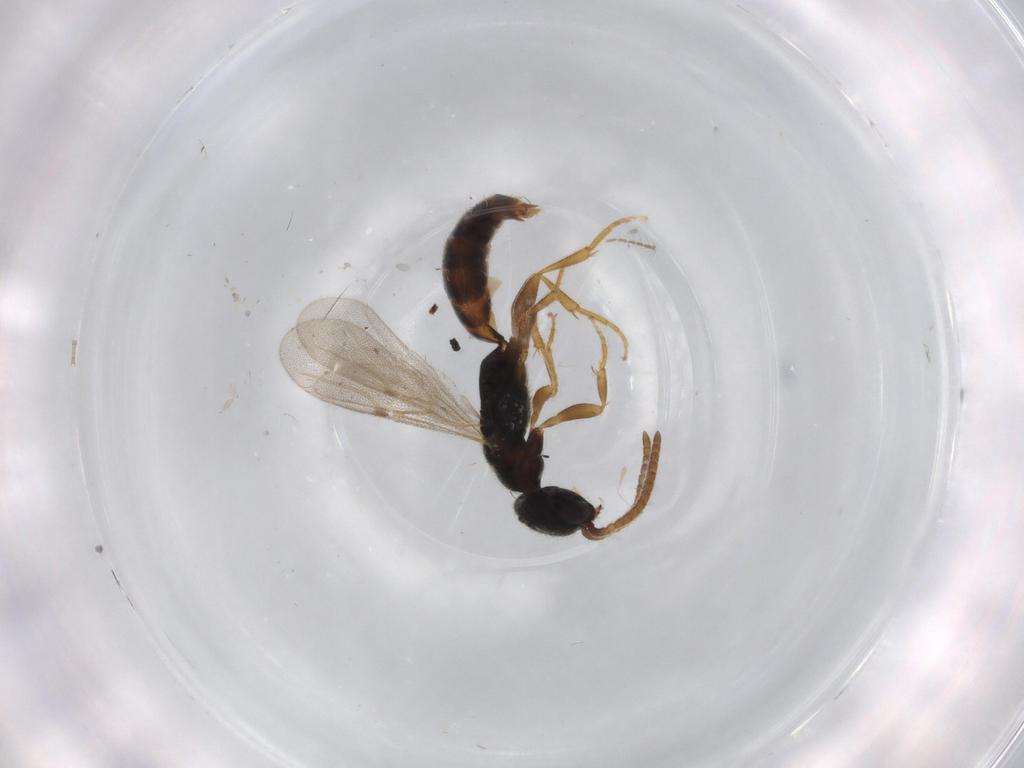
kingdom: Animalia
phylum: Arthropoda
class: Insecta
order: Hymenoptera
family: Bethylidae
